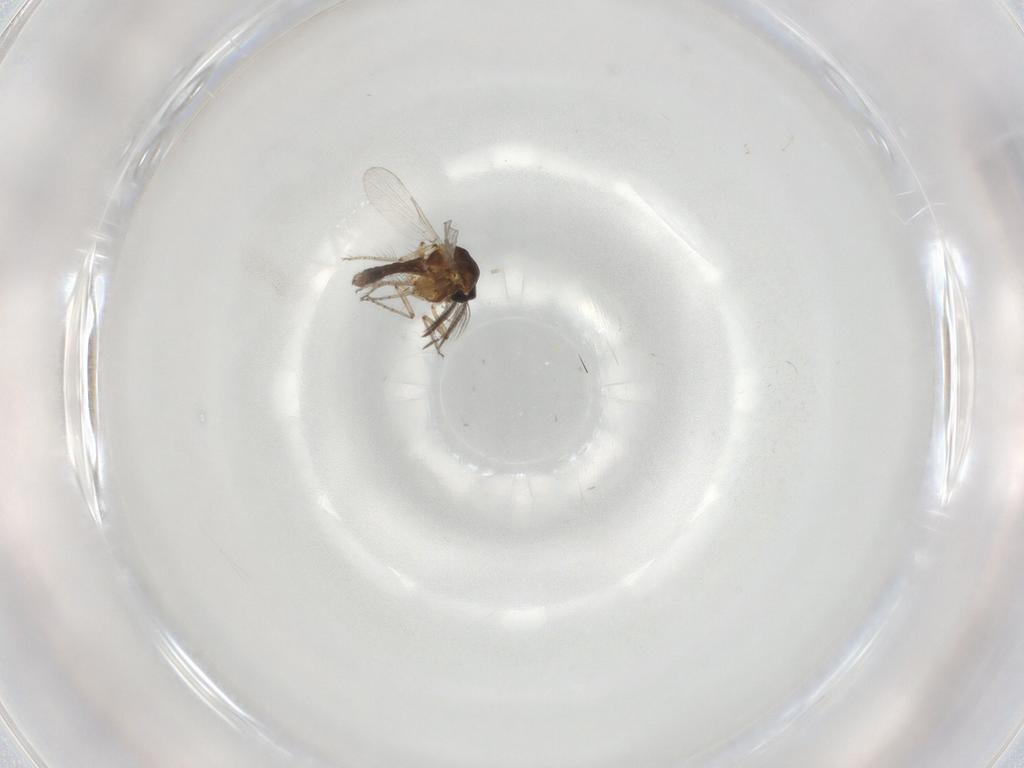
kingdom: Animalia
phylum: Arthropoda
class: Insecta
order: Diptera
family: Ceratopogonidae
